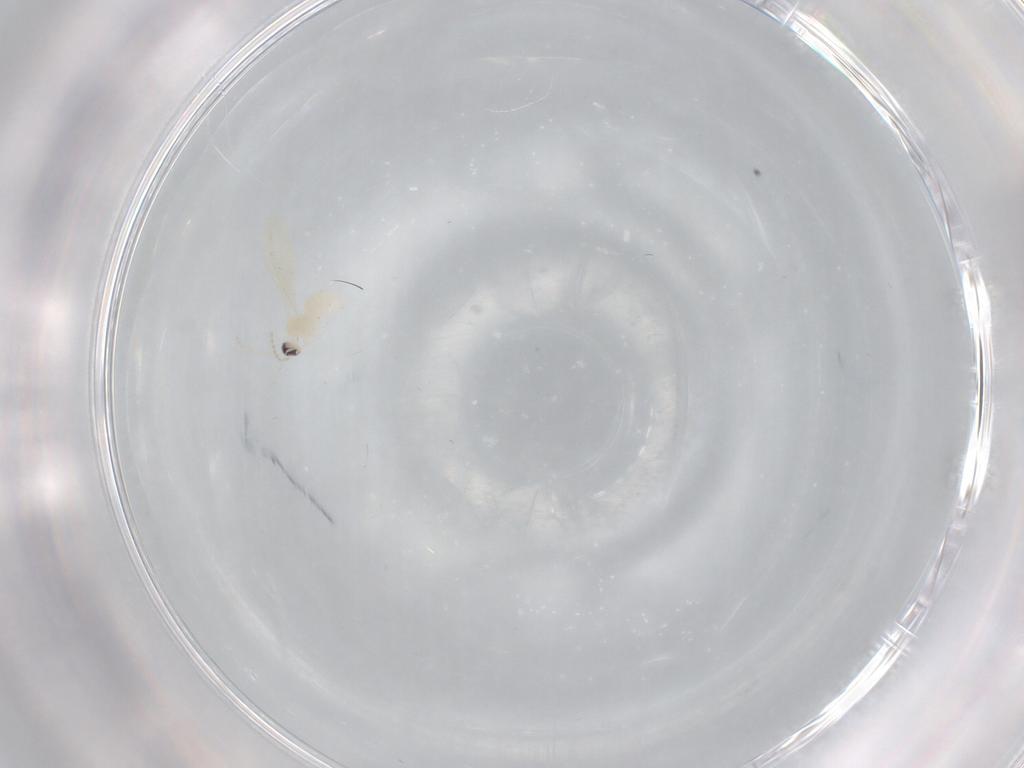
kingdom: Animalia
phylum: Arthropoda
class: Insecta
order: Diptera
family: Cecidomyiidae
